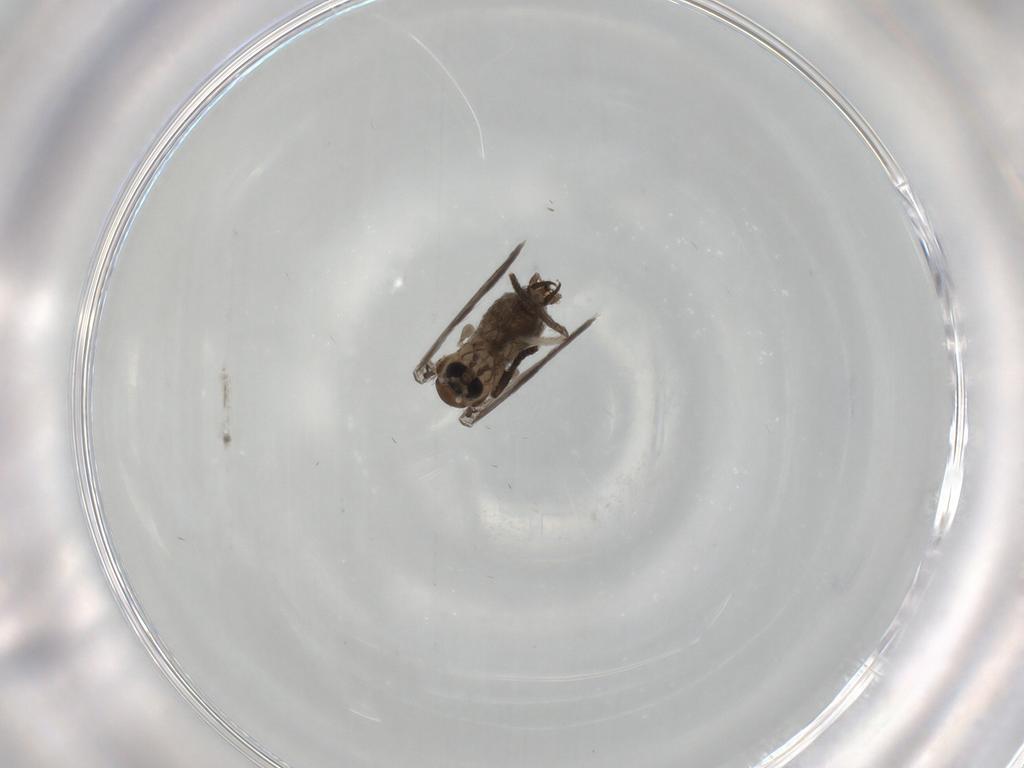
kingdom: Animalia
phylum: Arthropoda
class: Insecta
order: Diptera
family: Psychodidae
